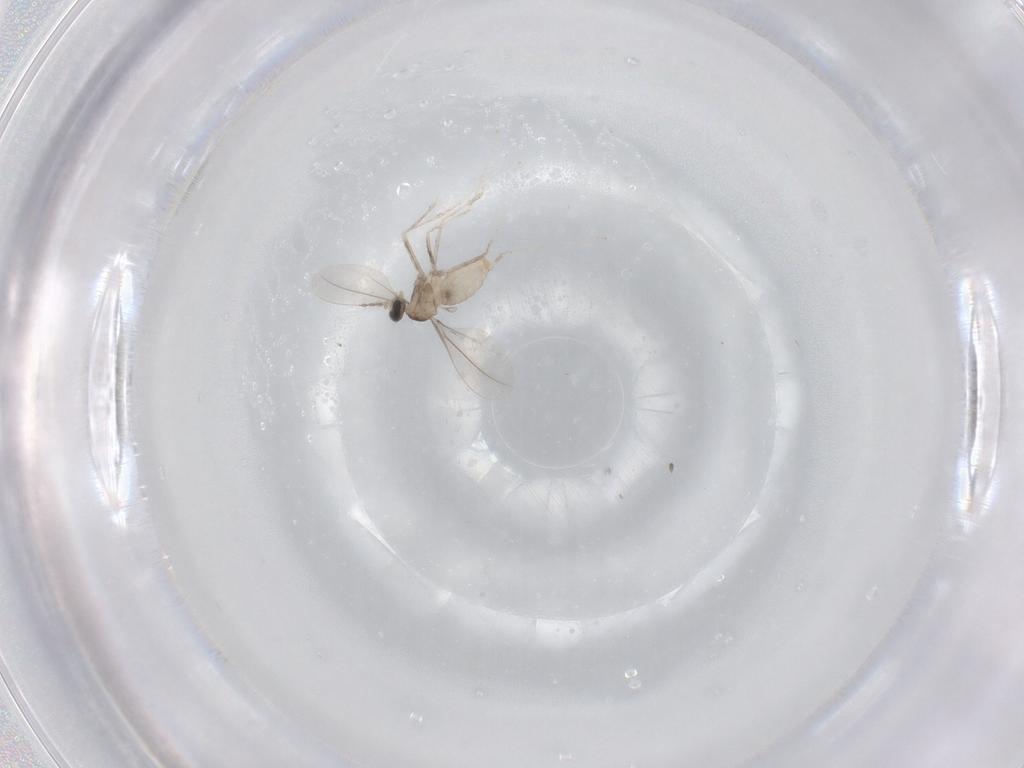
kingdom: Animalia
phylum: Arthropoda
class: Insecta
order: Diptera
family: Cecidomyiidae
